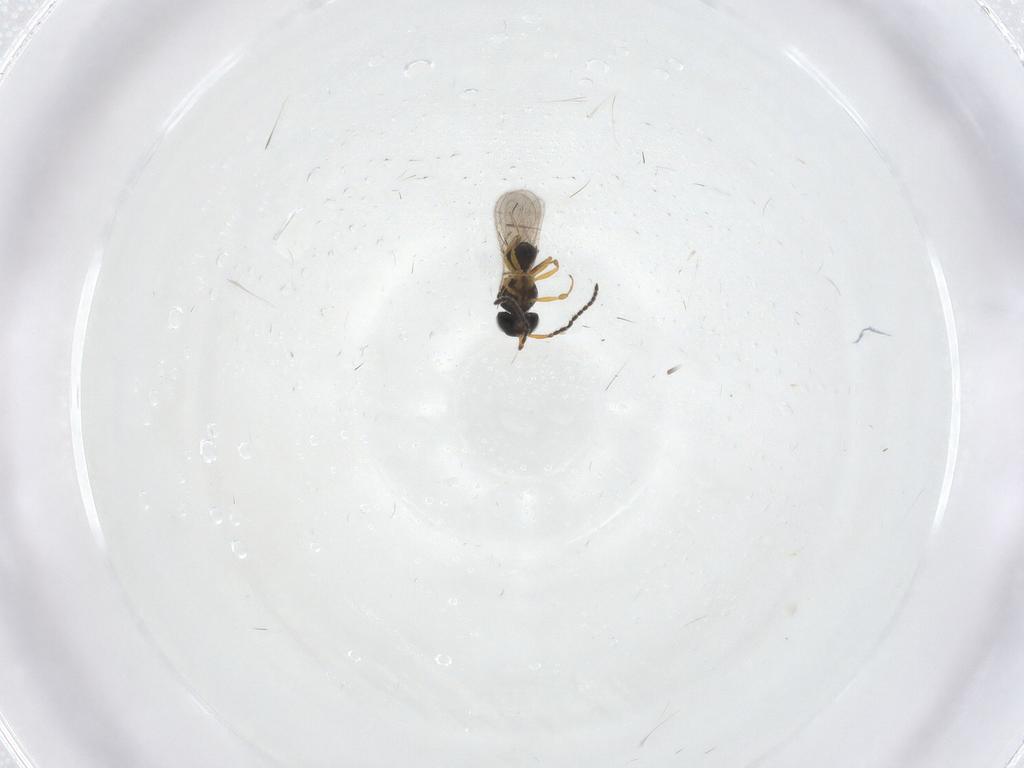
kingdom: Animalia
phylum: Arthropoda
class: Insecta
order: Hymenoptera
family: Scelionidae
